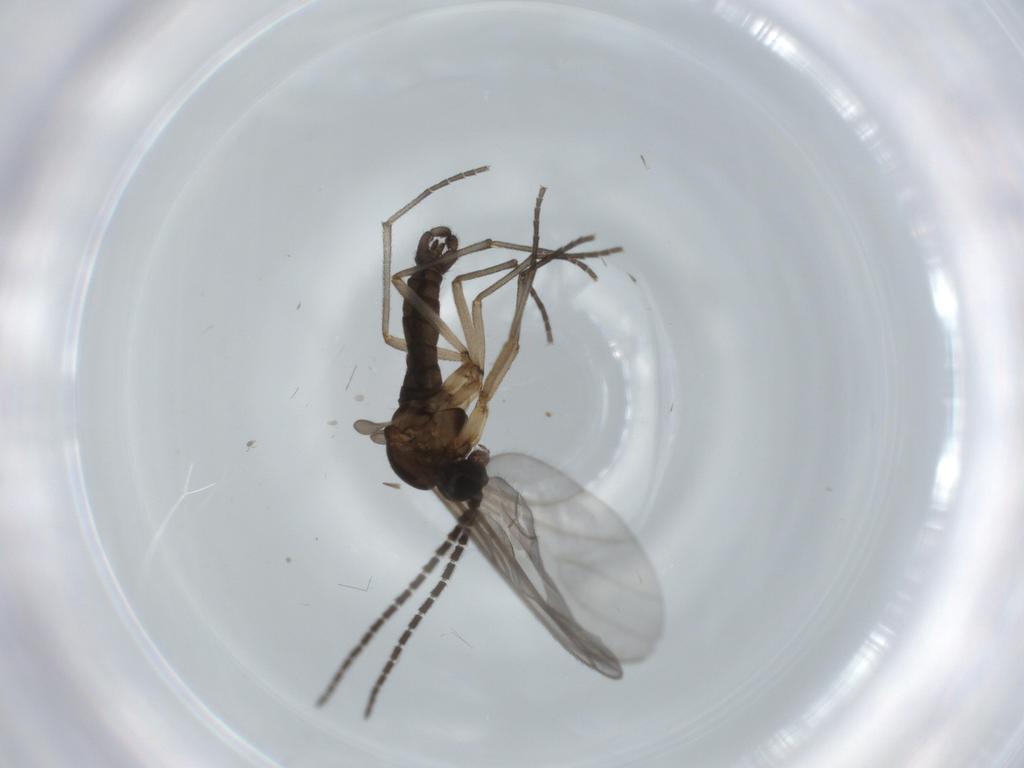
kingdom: Animalia
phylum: Arthropoda
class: Insecta
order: Diptera
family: Sciaridae
